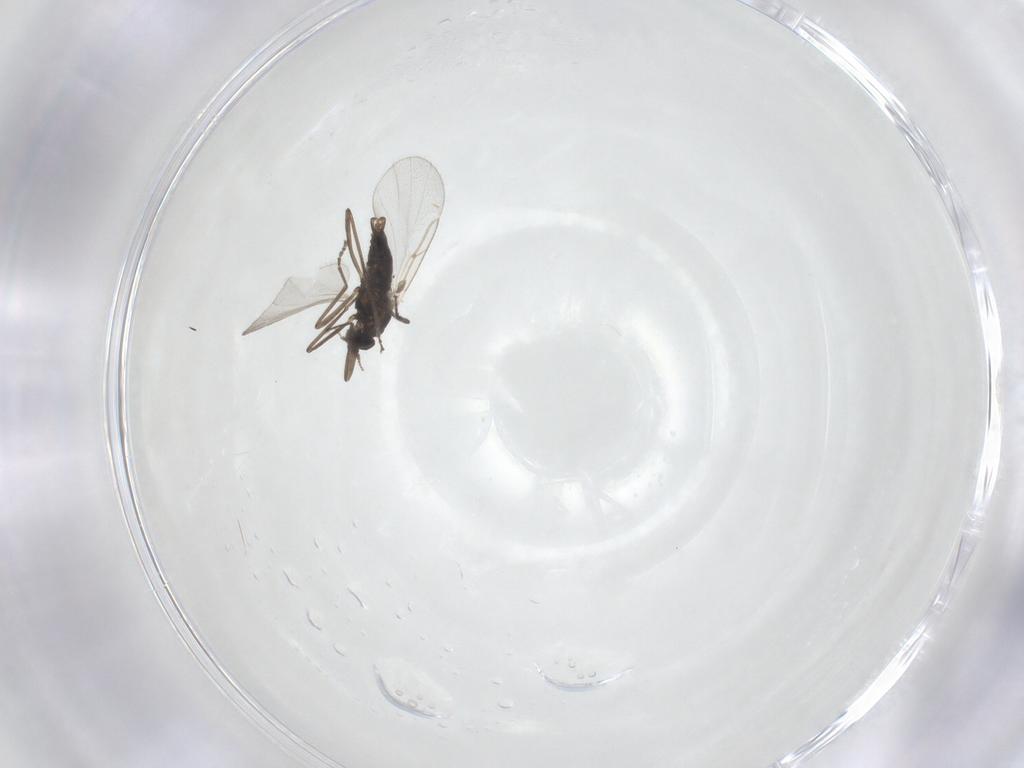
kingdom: Animalia
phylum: Arthropoda
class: Insecta
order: Diptera
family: Cecidomyiidae
